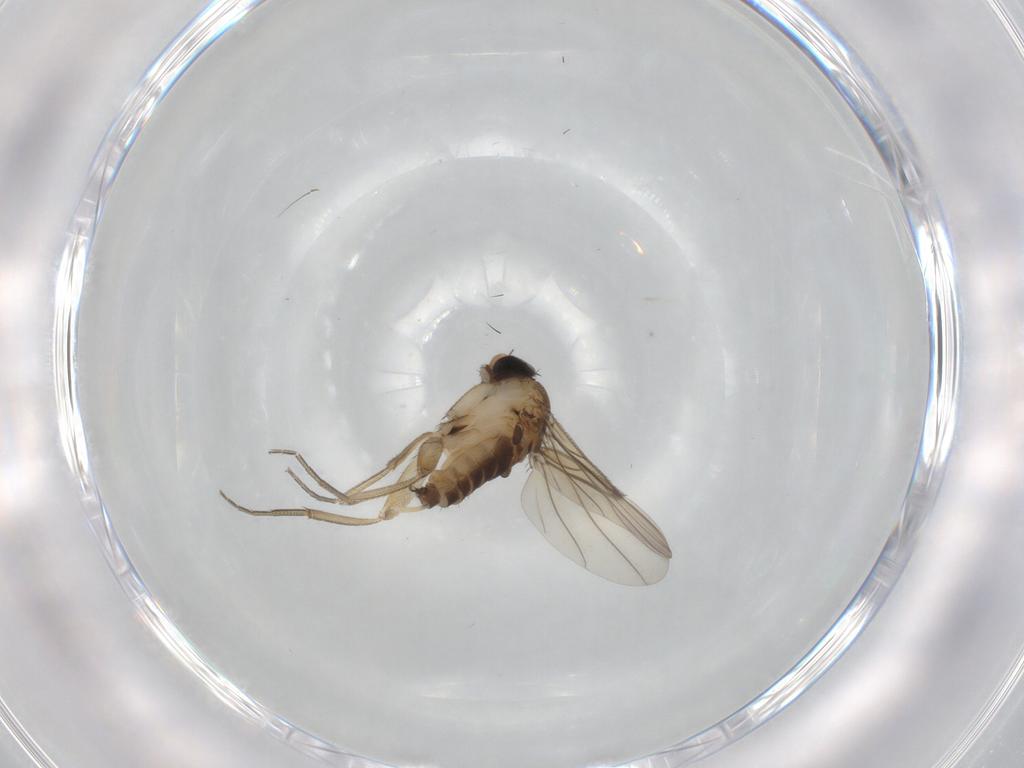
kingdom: Animalia
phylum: Arthropoda
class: Insecta
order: Diptera
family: Phoridae
